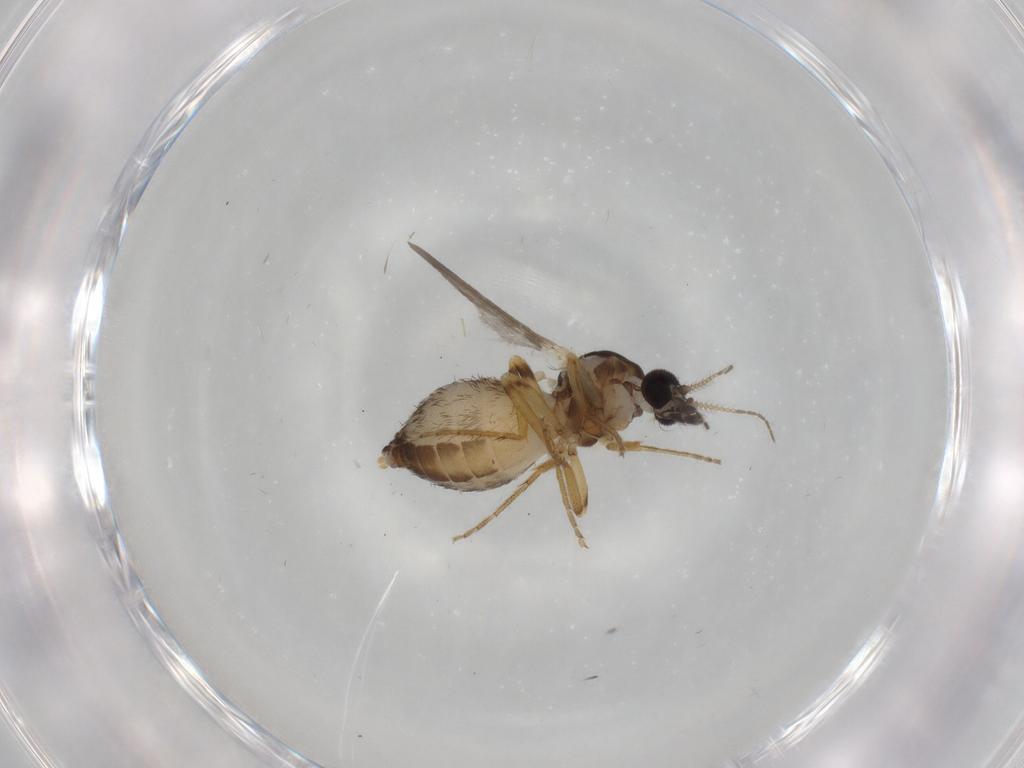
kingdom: Animalia
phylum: Arthropoda
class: Insecta
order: Diptera
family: Ceratopogonidae
